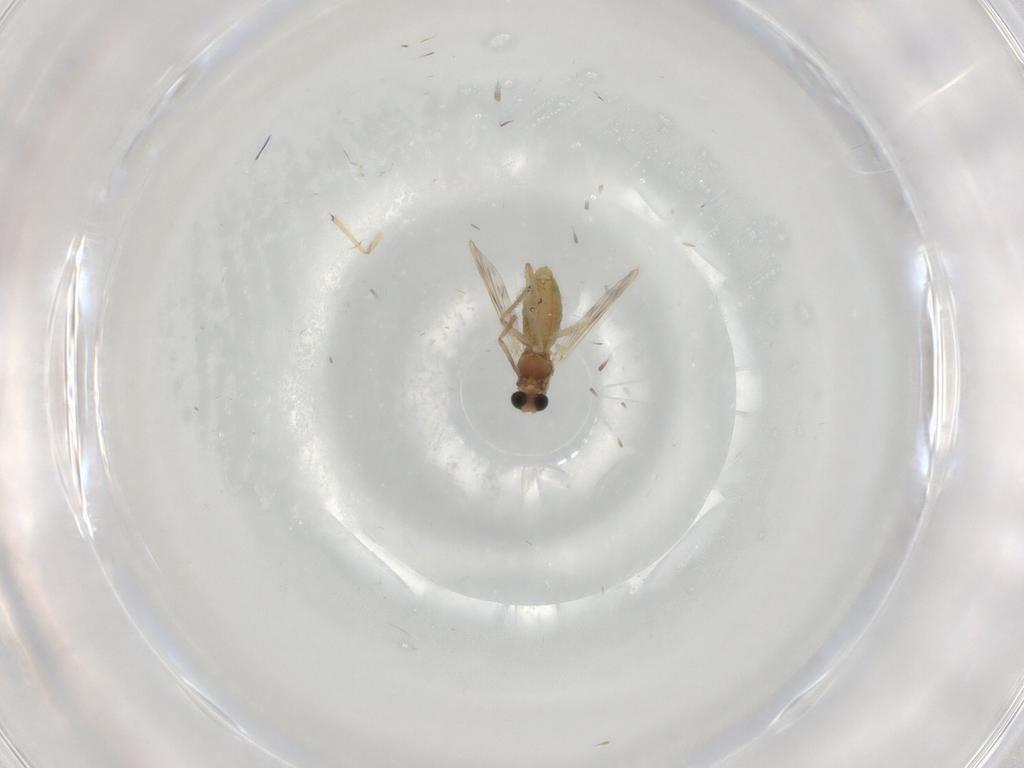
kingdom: Animalia
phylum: Arthropoda
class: Insecta
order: Diptera
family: Chironomidae
